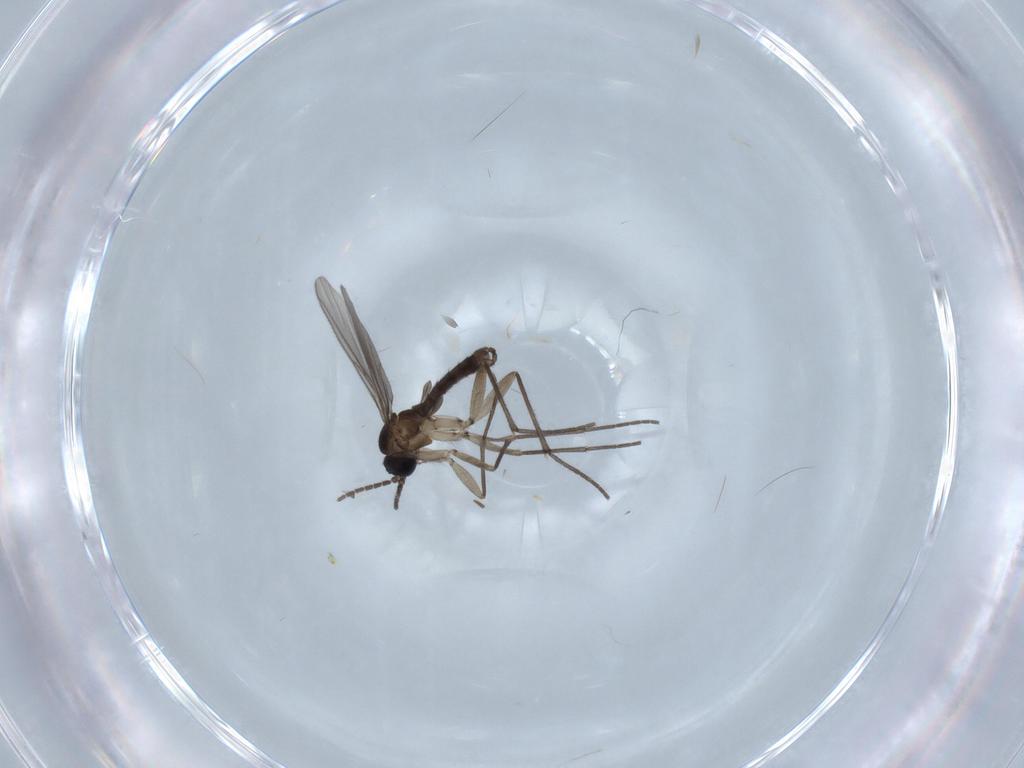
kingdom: Animalia
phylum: Arthropoda
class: Insecta
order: Diptera
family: Sciaridae
